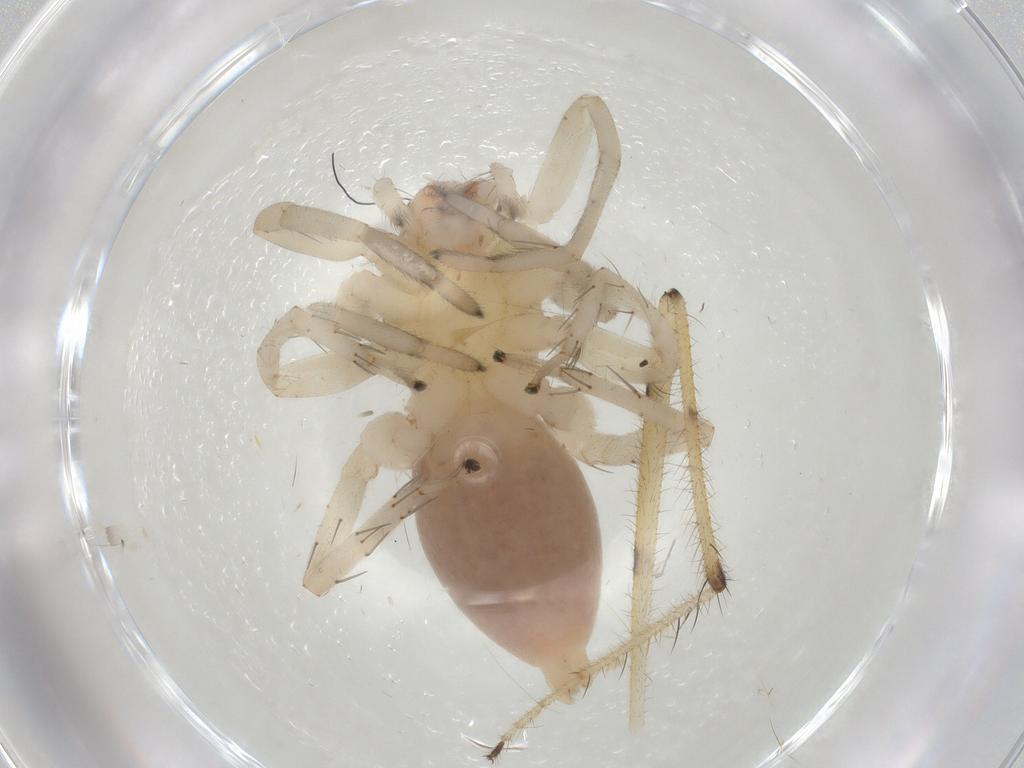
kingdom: Animalia
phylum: Arthropoda
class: Arachnida
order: Araneae
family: Clubionidae
